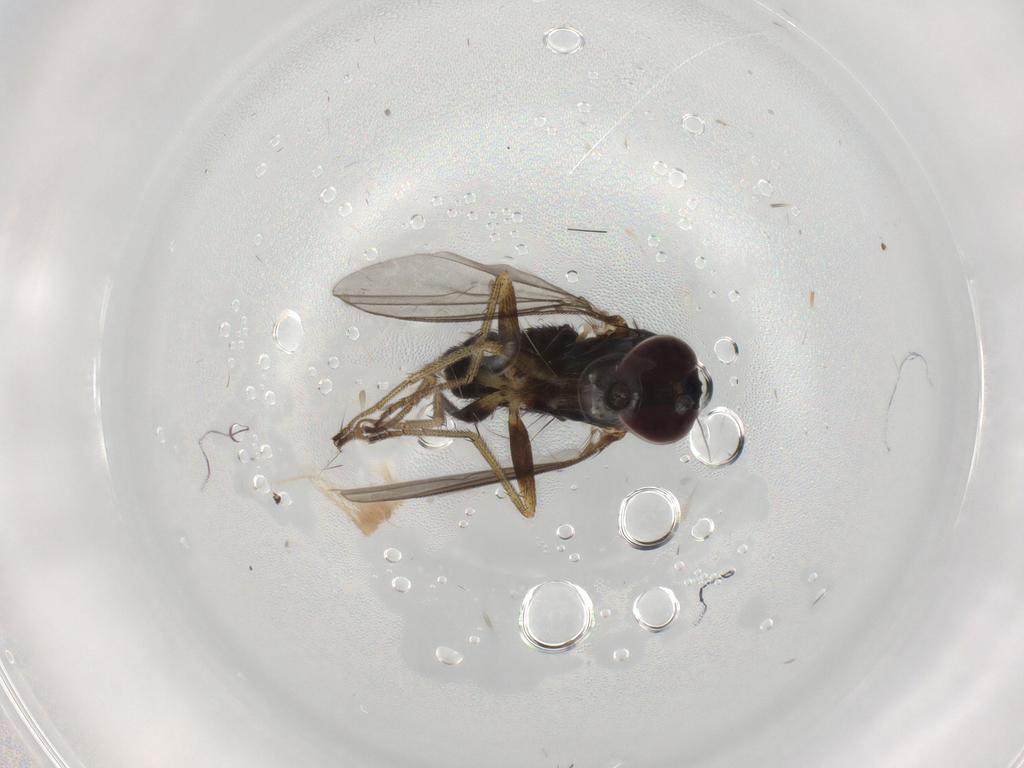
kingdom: Animalia
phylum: Arthropoda
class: Insecta
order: Diptera
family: Dolichopodidae
